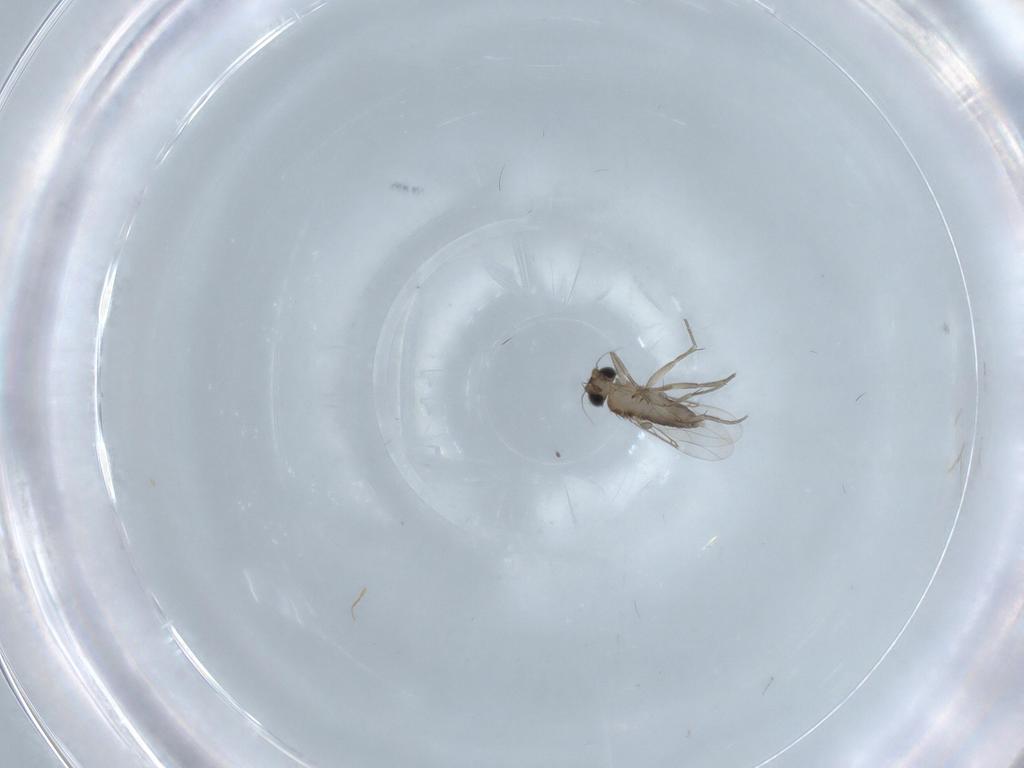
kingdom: Animalia
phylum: Arthropoda
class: Insecta
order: Diptera
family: Phoridae
